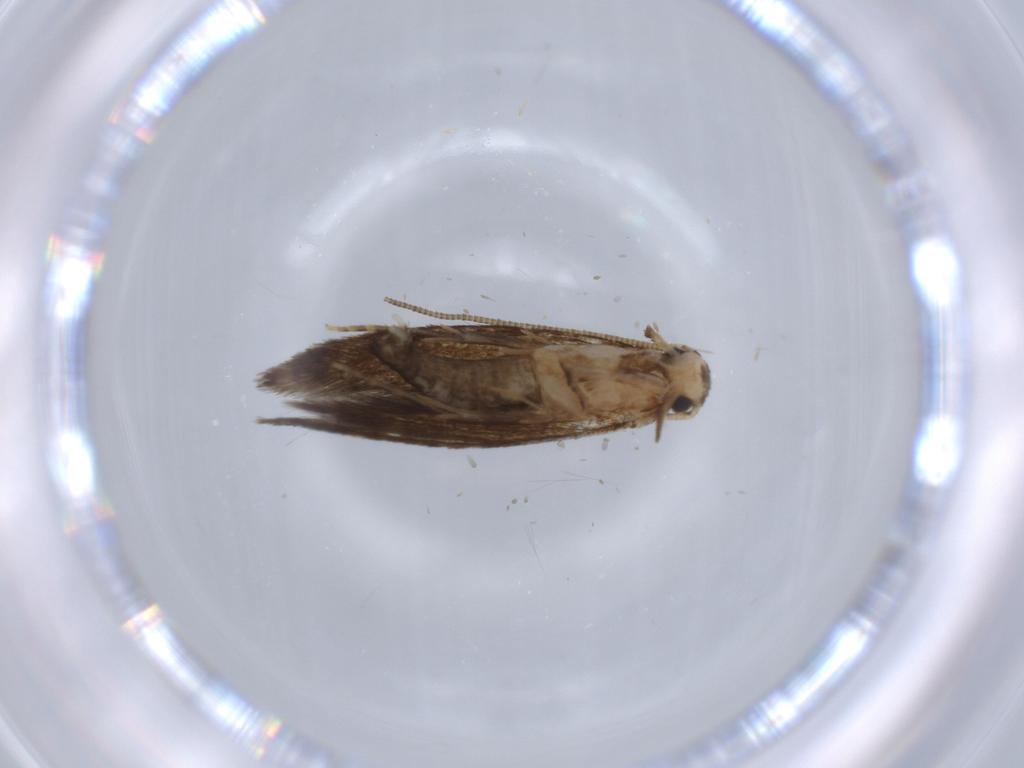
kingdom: Animalia
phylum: Arthropoda
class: Insecta
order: Lepidoptera
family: Tineidae
